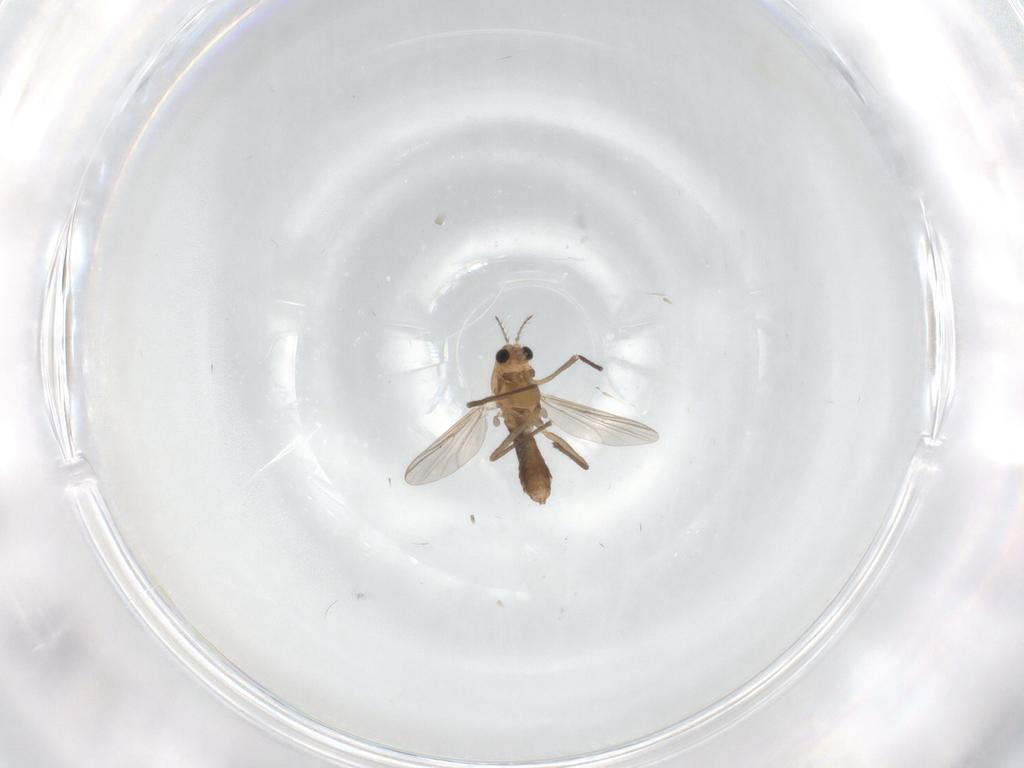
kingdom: Animalia
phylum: Arthropoda
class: Insecta
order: Diptera
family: Chironomidae
